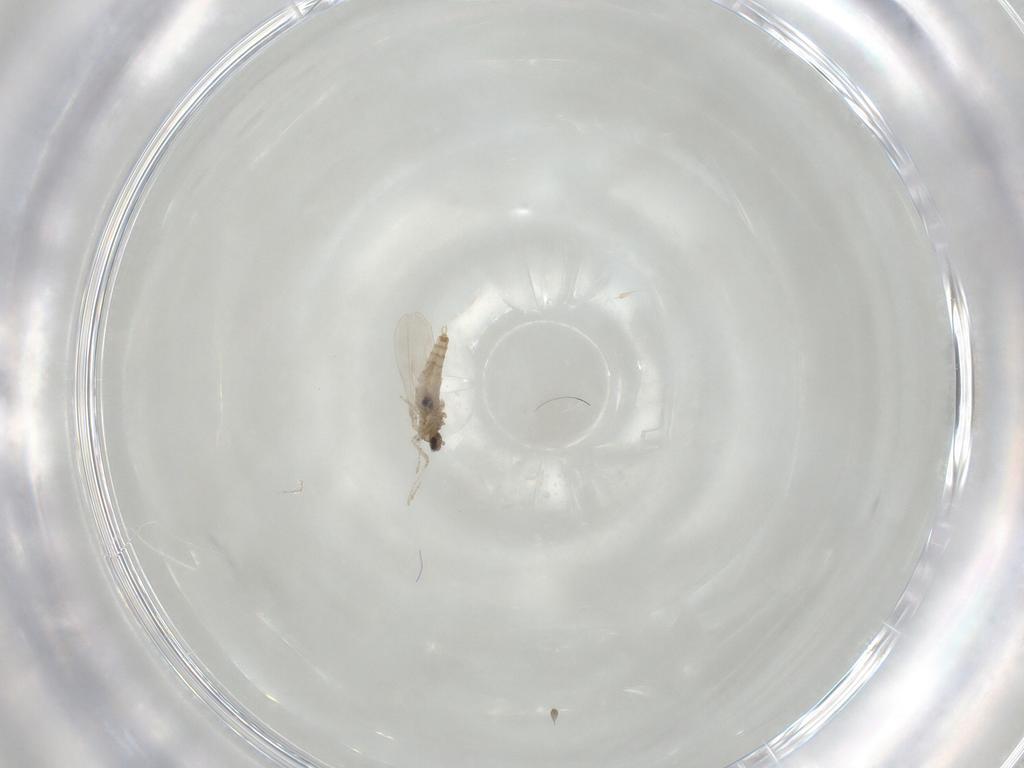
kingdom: Animalia
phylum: Arthropoda
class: Insecta
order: Diptera
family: Cecidomyiidae
